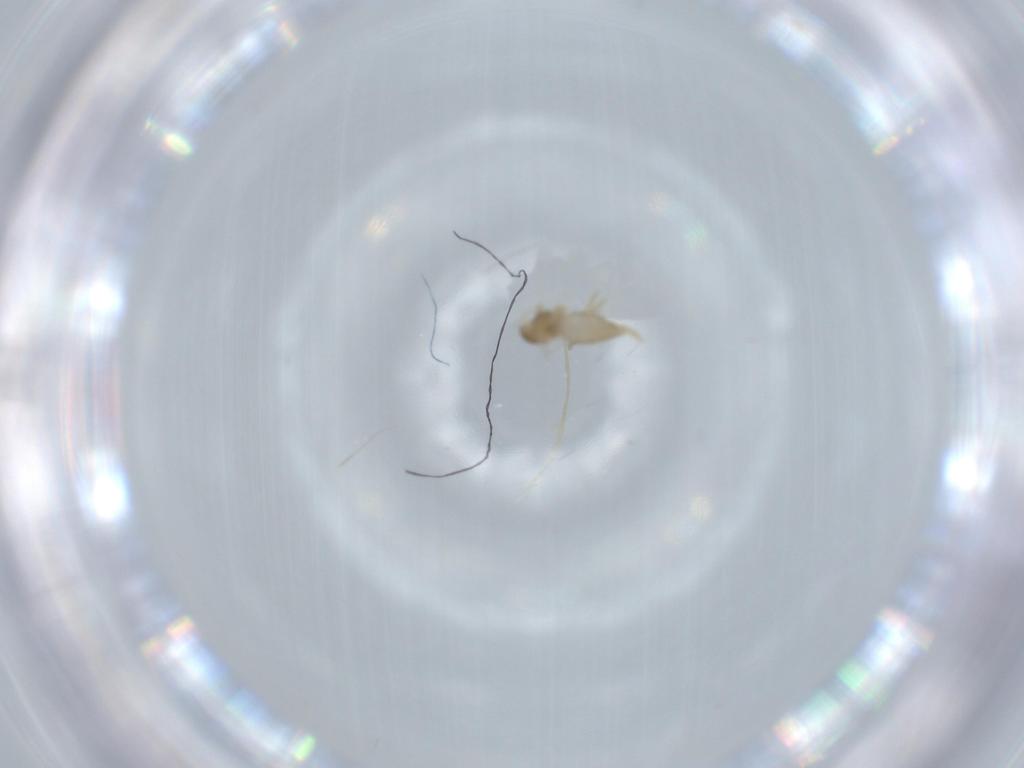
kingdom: Animalia
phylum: Arthropoda
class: Insecta
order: Diptera
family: Cecidomyiidae
